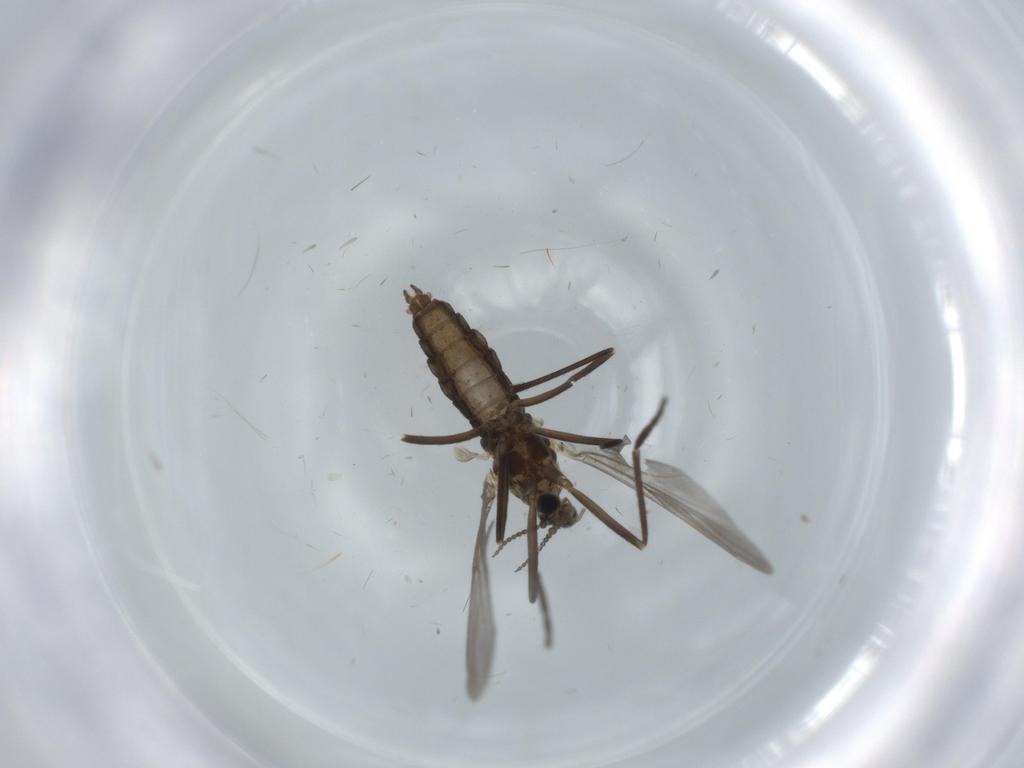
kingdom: Animalia
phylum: Arthropoda
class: Insecta
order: Diptera
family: Cecidomyiidae
